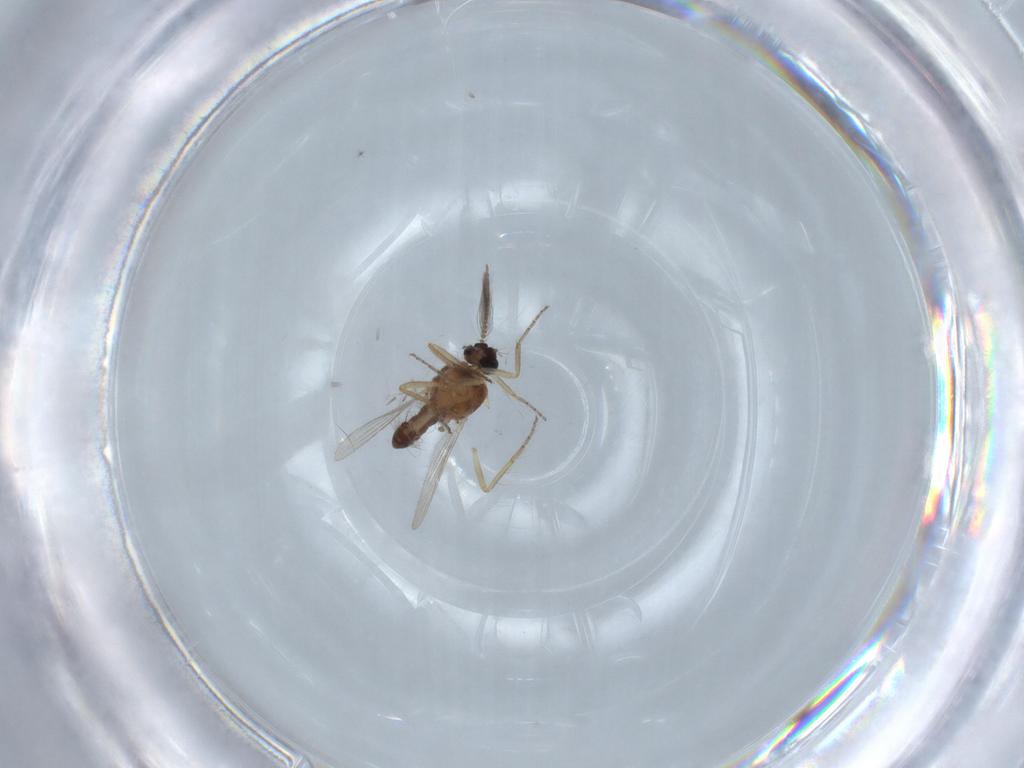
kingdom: Animalia
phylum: Arthropoda
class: Insecta
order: Diptera
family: Ceratopogonidae
